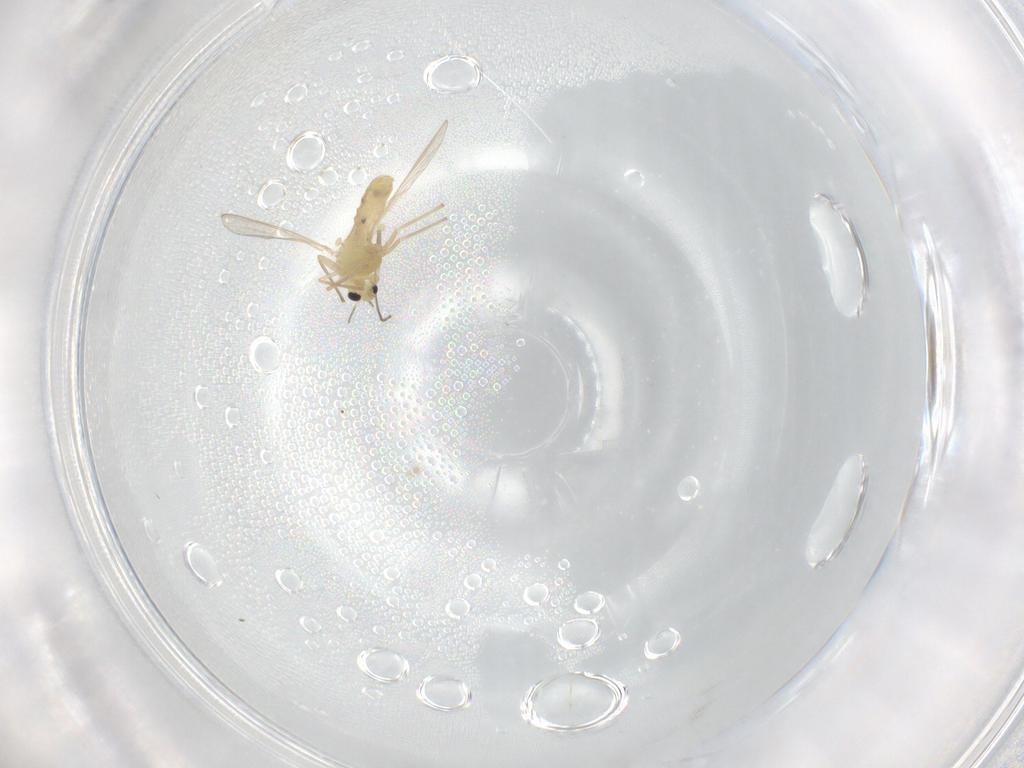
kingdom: Animalia
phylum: Arthropoda
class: Insecta
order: Diptera
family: Chironomidae
